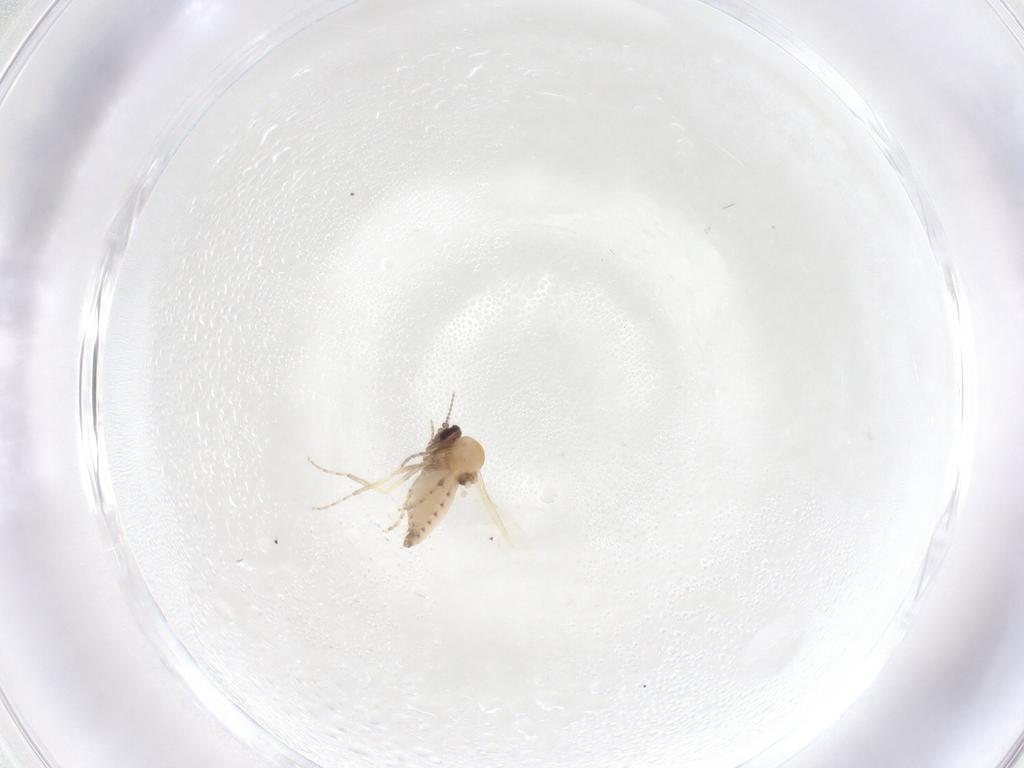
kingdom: Animalia
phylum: Arthropoda
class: Insecta
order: Diptera
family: Ceratopogonidae
